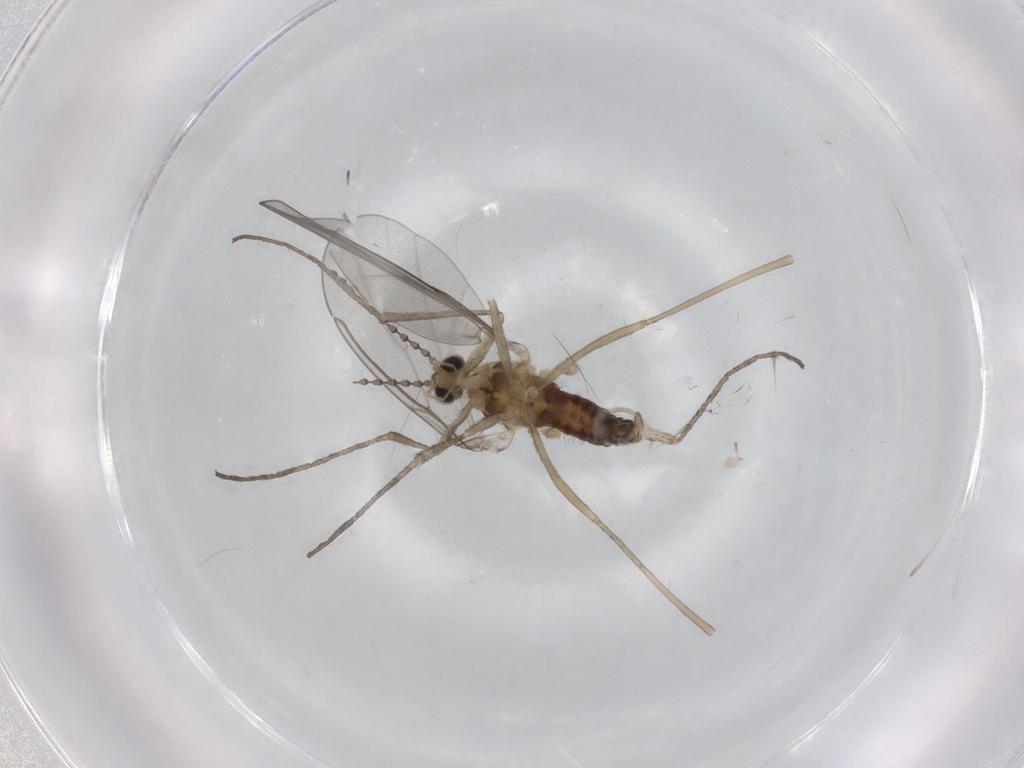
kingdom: Animalia
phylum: Arthropoda
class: Insecta
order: Diptera
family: Cecidomyiidae
